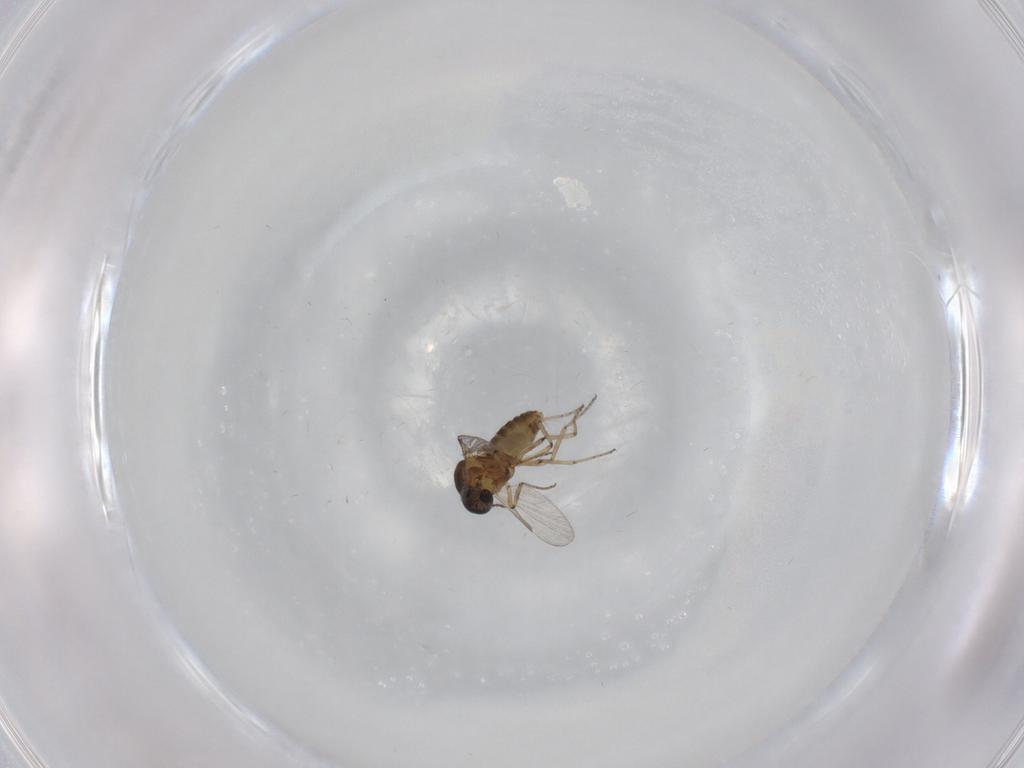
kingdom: Animalia
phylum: Arthropoda
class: Insecta
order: Diptera
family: Ceratopogonidae
